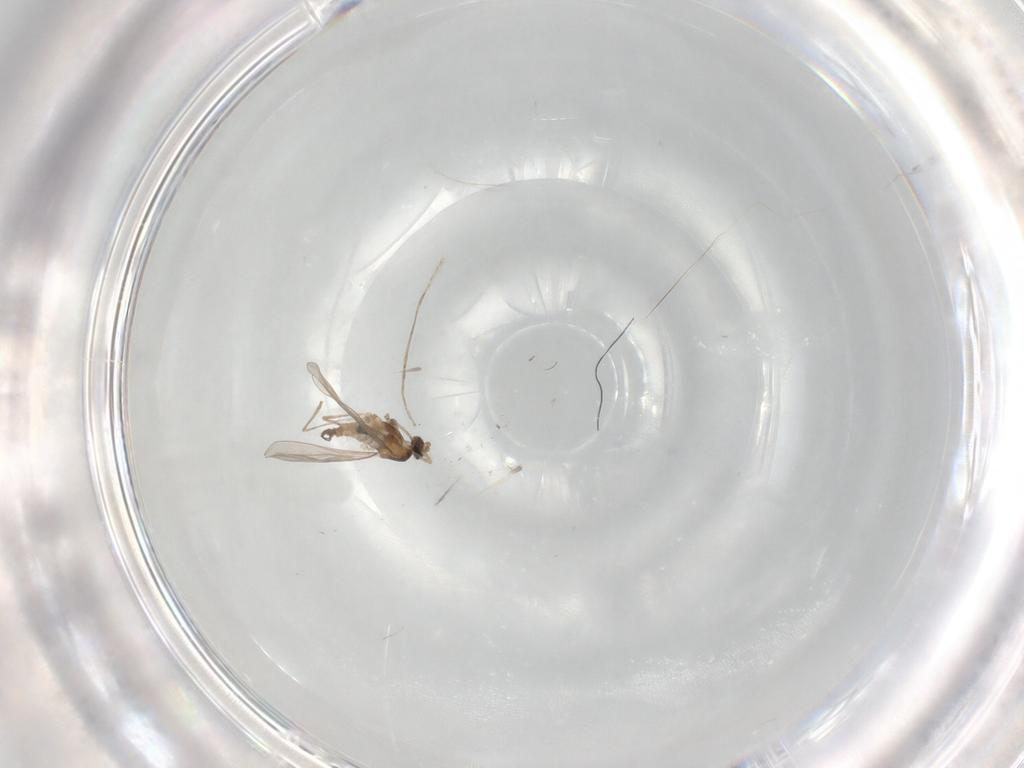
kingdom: Animalia
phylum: Arthropoda
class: Insecta
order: Diptera
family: Cecidomyiidae
